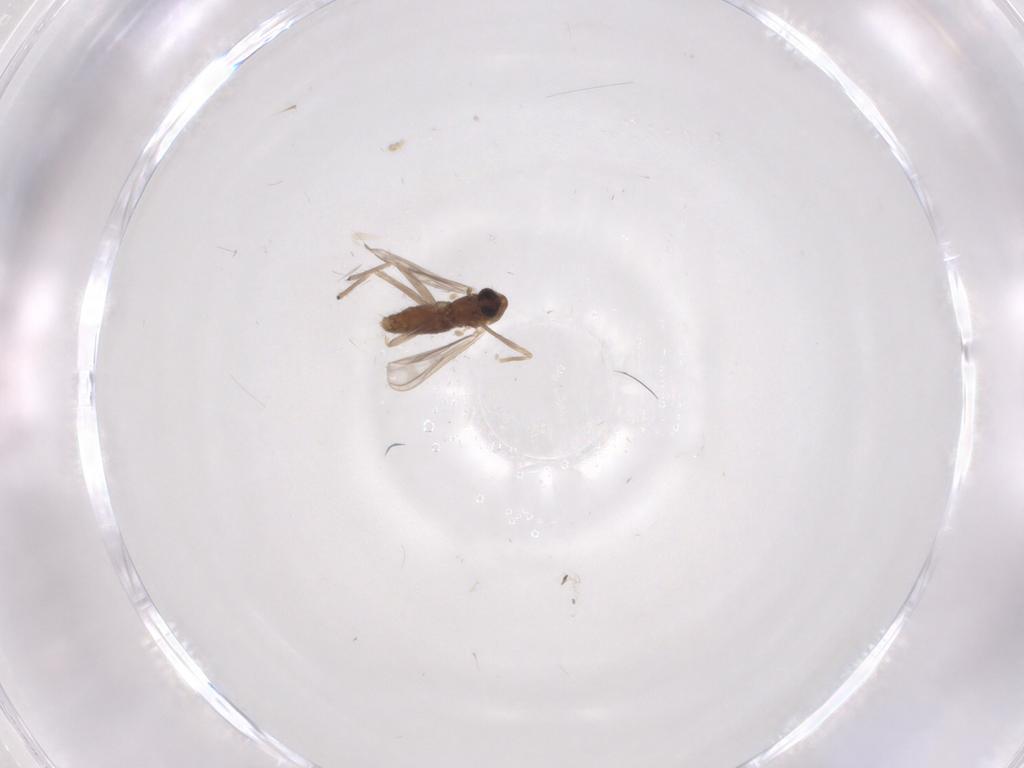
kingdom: Animalia
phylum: Arthropoda
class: Insecta
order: Diptera
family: Chironomidae
